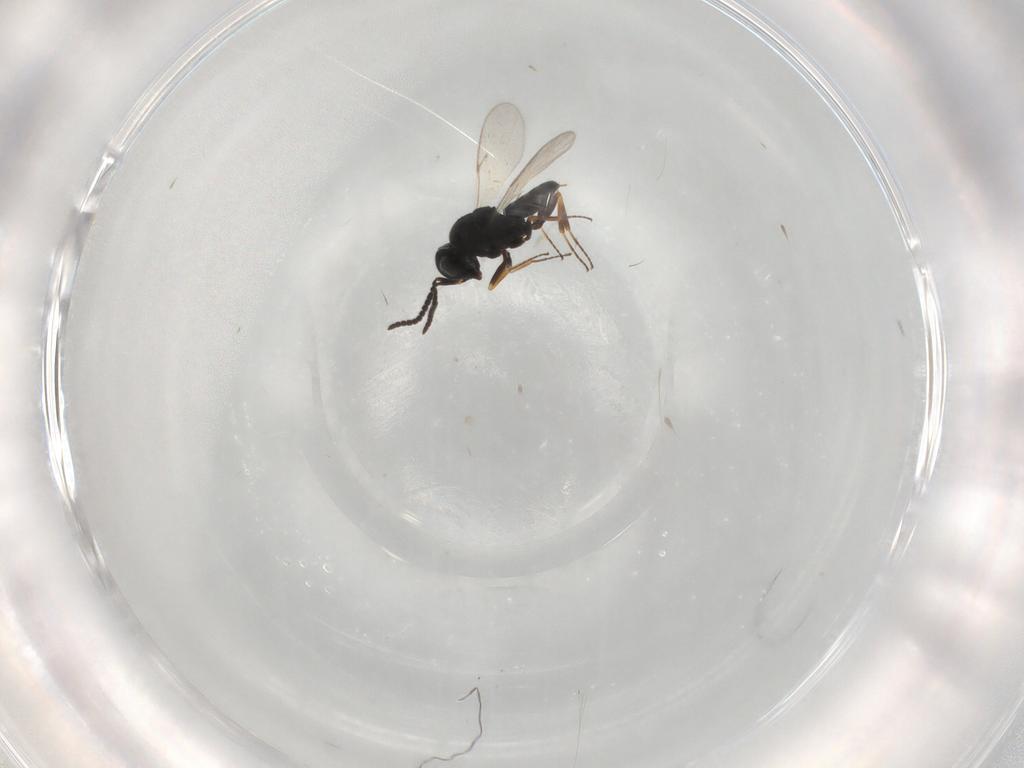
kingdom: Animalia
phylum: Arthropoda
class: Insecta
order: Hymenoptera
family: Scelionidae
